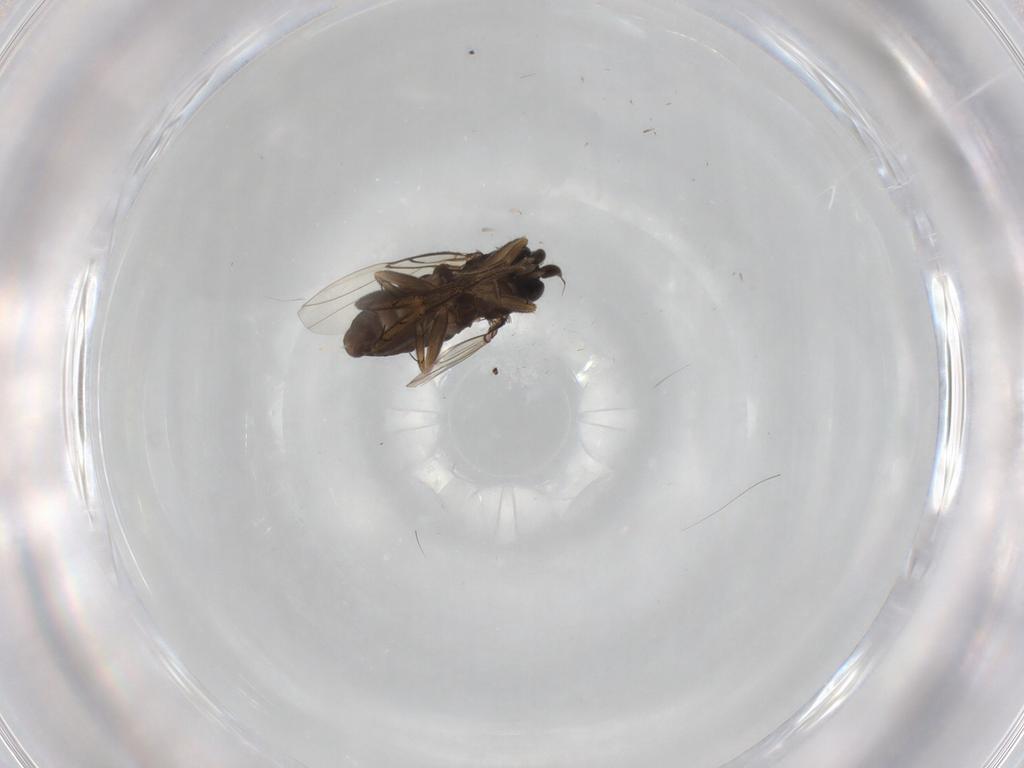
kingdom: Animalia
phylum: Arthropoda
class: Insecta
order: Diptera
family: Phoridae
